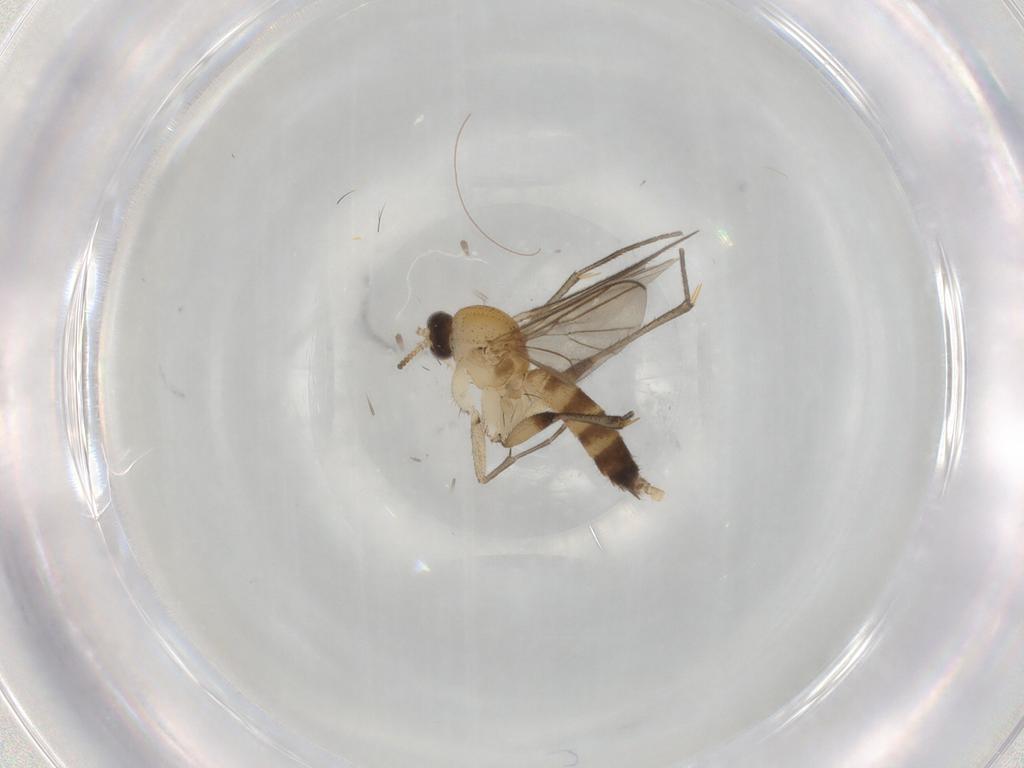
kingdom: Animalia
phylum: Arthropoda
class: Insecta
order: Diptera
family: Tabanidae
